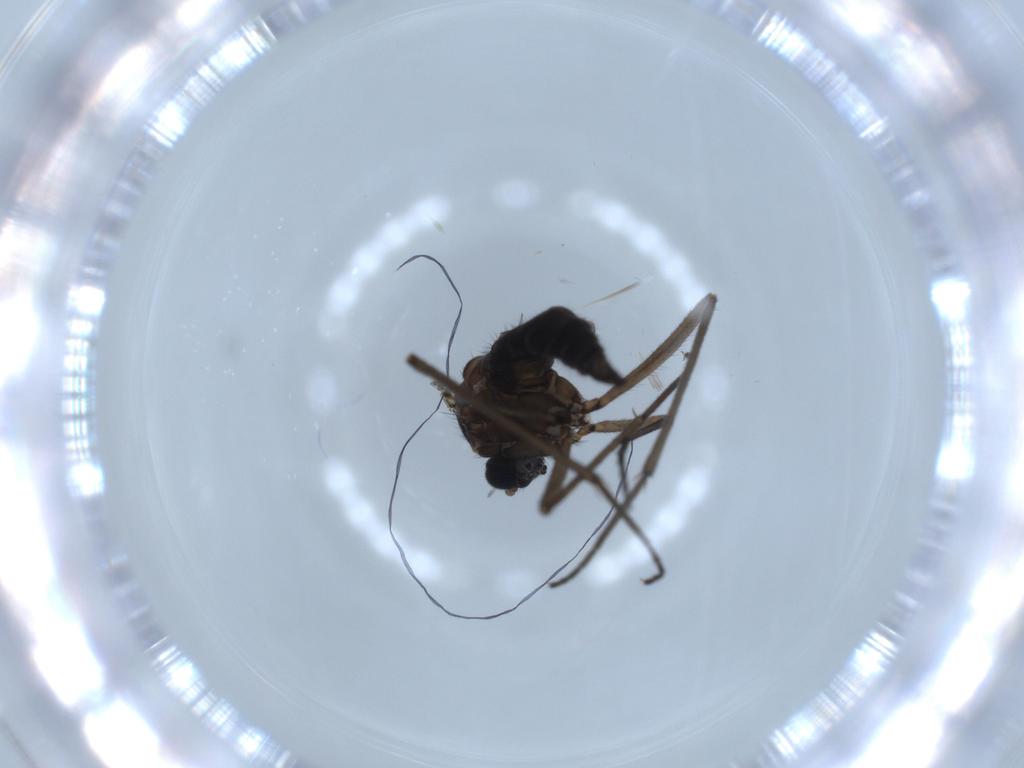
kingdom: Animalia
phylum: Arthropoda
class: Insecta
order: Diptera
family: Sciaridae
